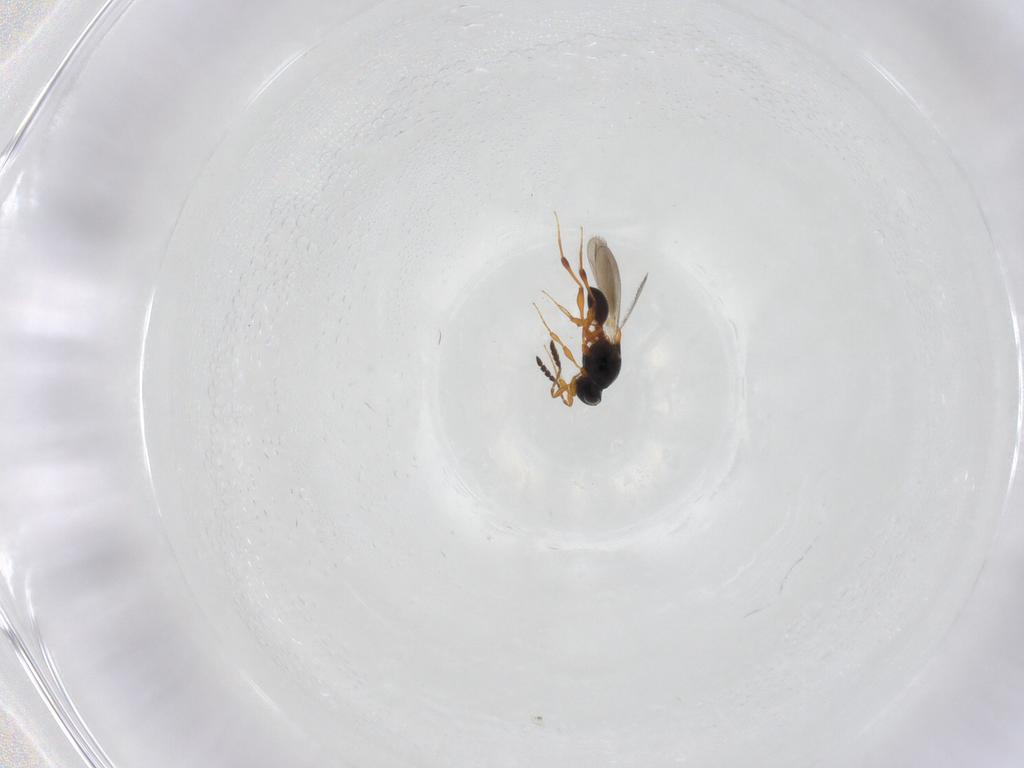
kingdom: Animalia
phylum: Arthropoda
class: Insecta
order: Hymenoptera
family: Platygastridae
